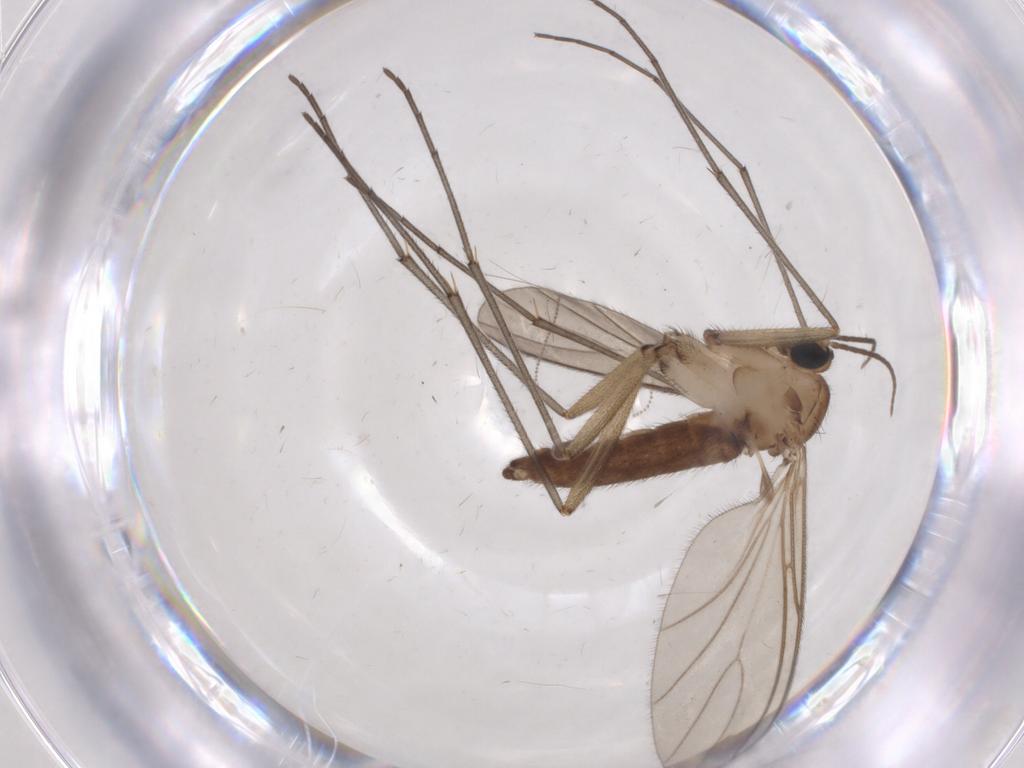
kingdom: Animalia
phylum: Arthropoda
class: Insecta
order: Diptera
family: Sciaridae
